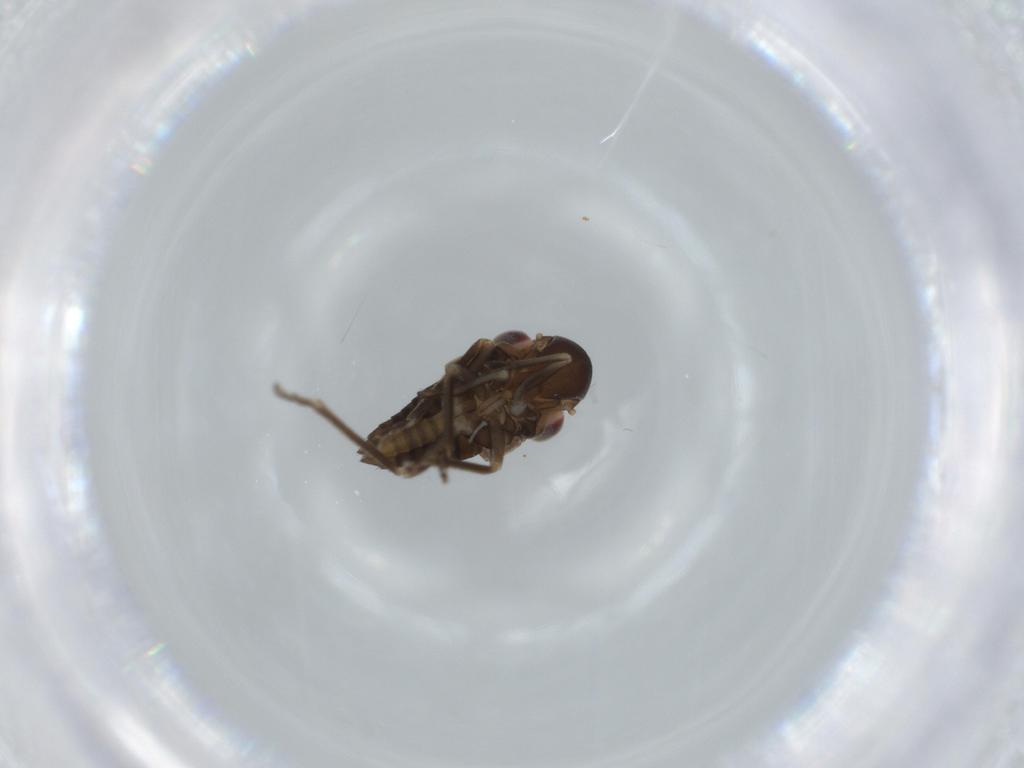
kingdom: Animalia
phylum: Arthropoda
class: Insecta
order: Hemiptera
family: Cicadellidae
